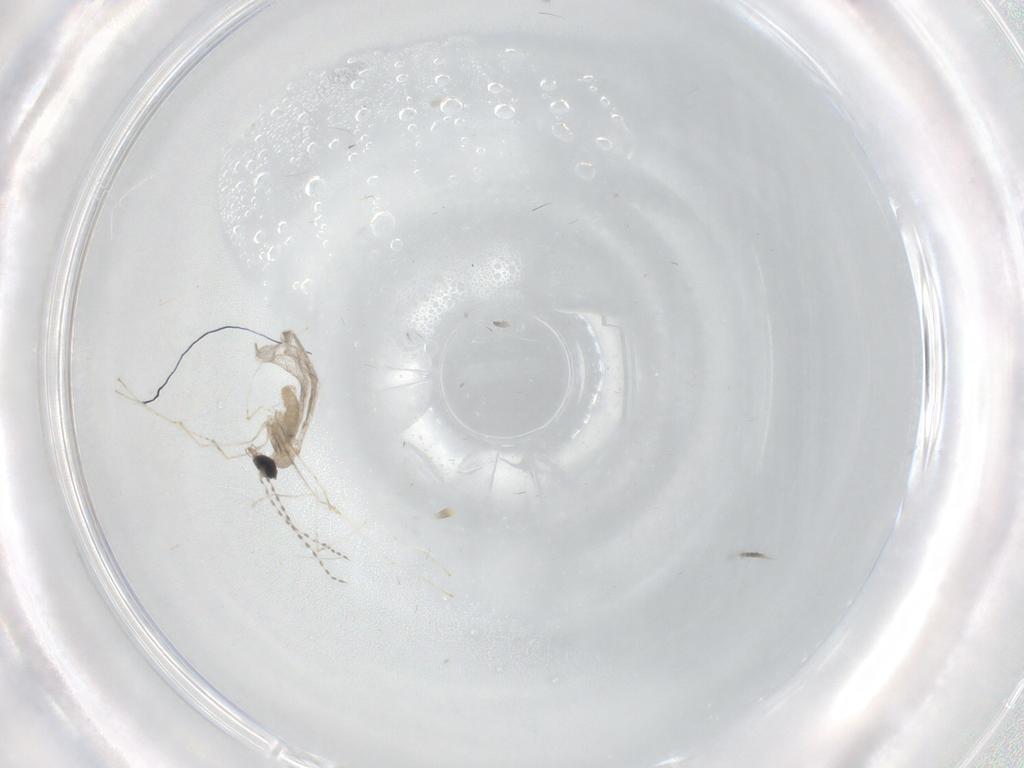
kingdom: Animalia
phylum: Arthropoda
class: Insecta
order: Diptera
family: Cecidomyiidae
